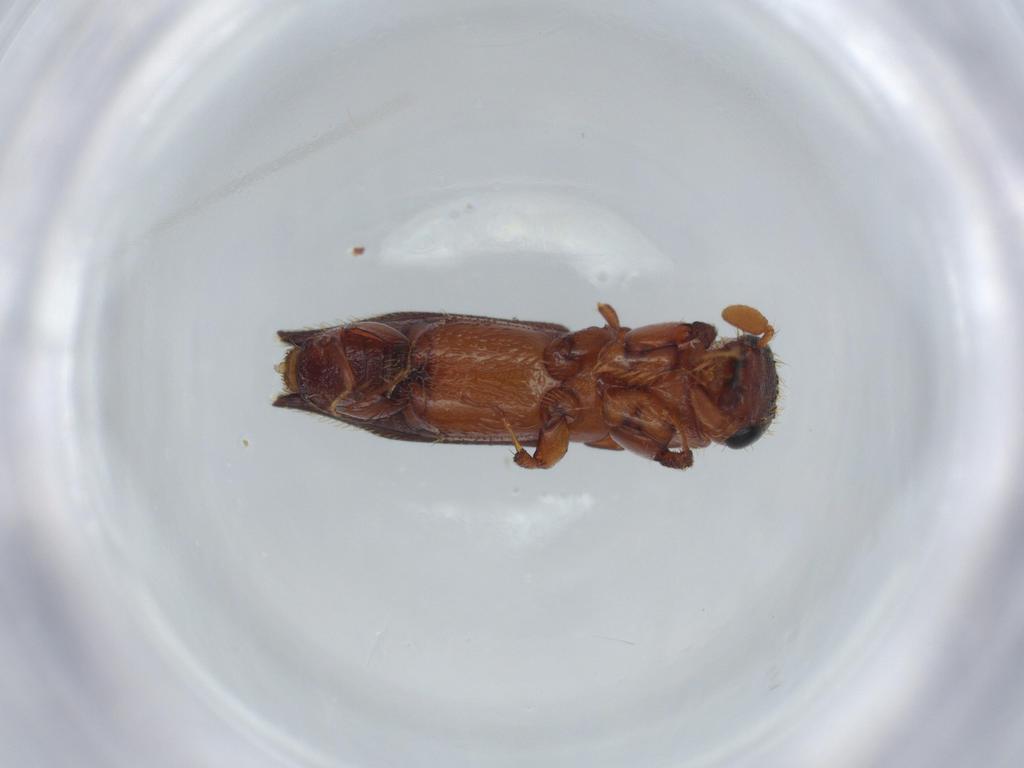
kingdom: Animalia
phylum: Arthropoda
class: Insecta
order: Coleoptera
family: Curculionidae
